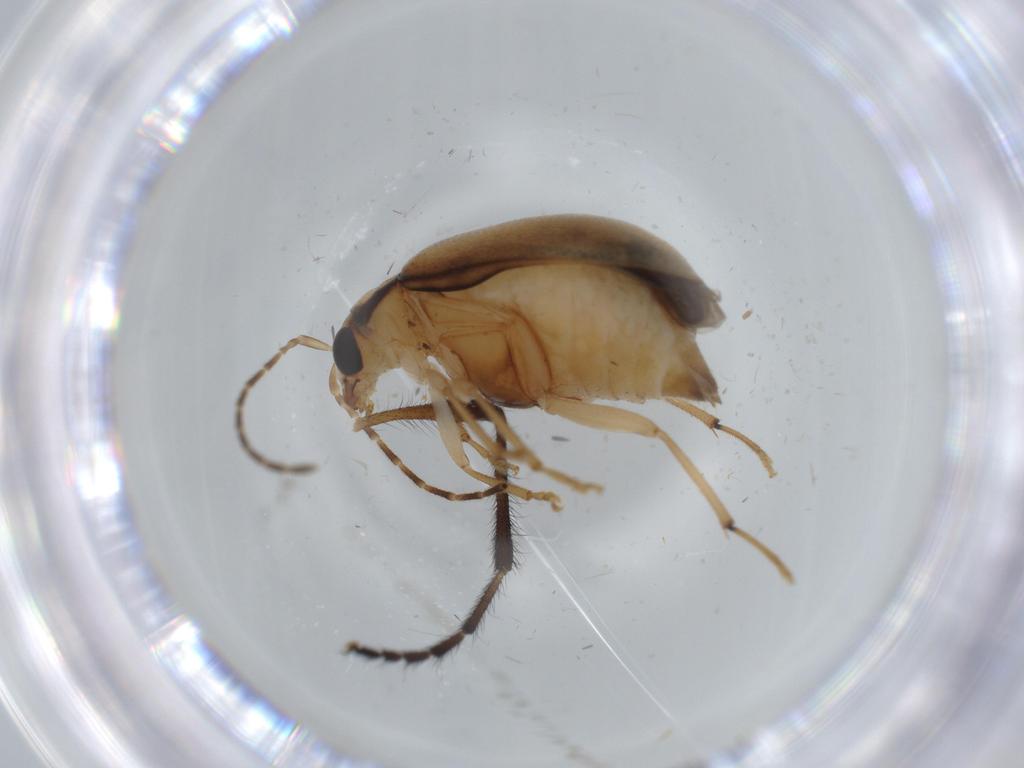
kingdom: Animalia
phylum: Arthropoda
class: Insecta
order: Coleoptera
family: Chrysomelidae
